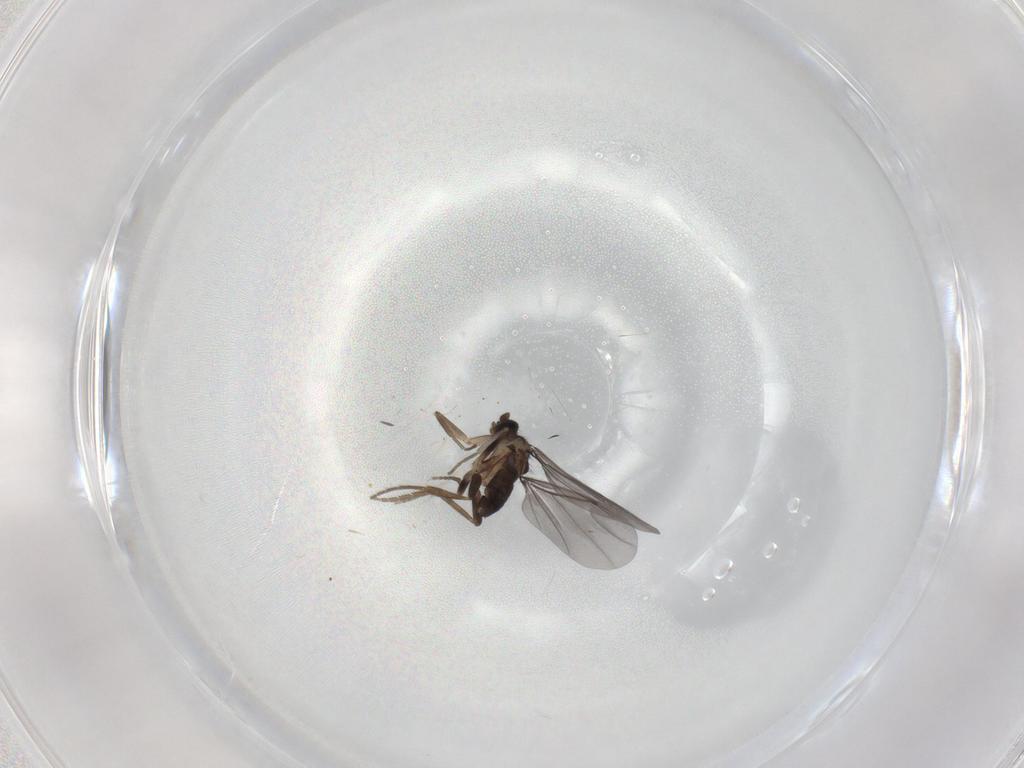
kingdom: Animalia
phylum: Arthropoda
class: Insecta
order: Diptera
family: Phoridae
